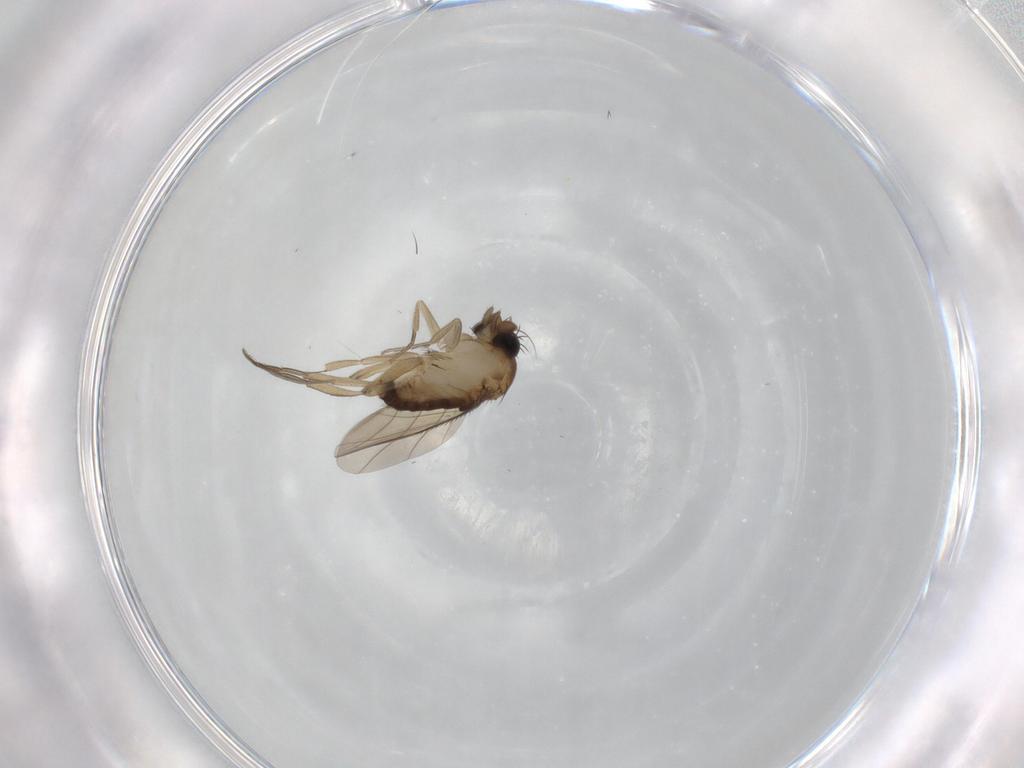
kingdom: Animalia
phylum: Arthropoda
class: Insecta
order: Diptera
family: Phoridae
